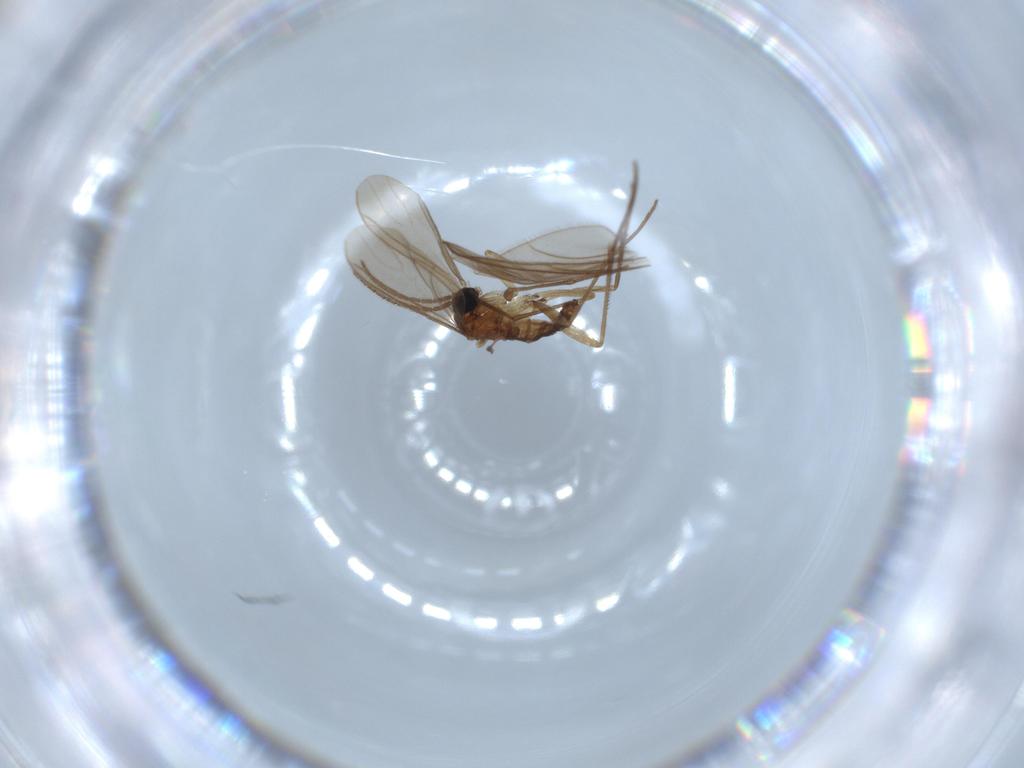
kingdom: Animalia
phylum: Arthropoda
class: Insecta
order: Diptera
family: Sciaridae
